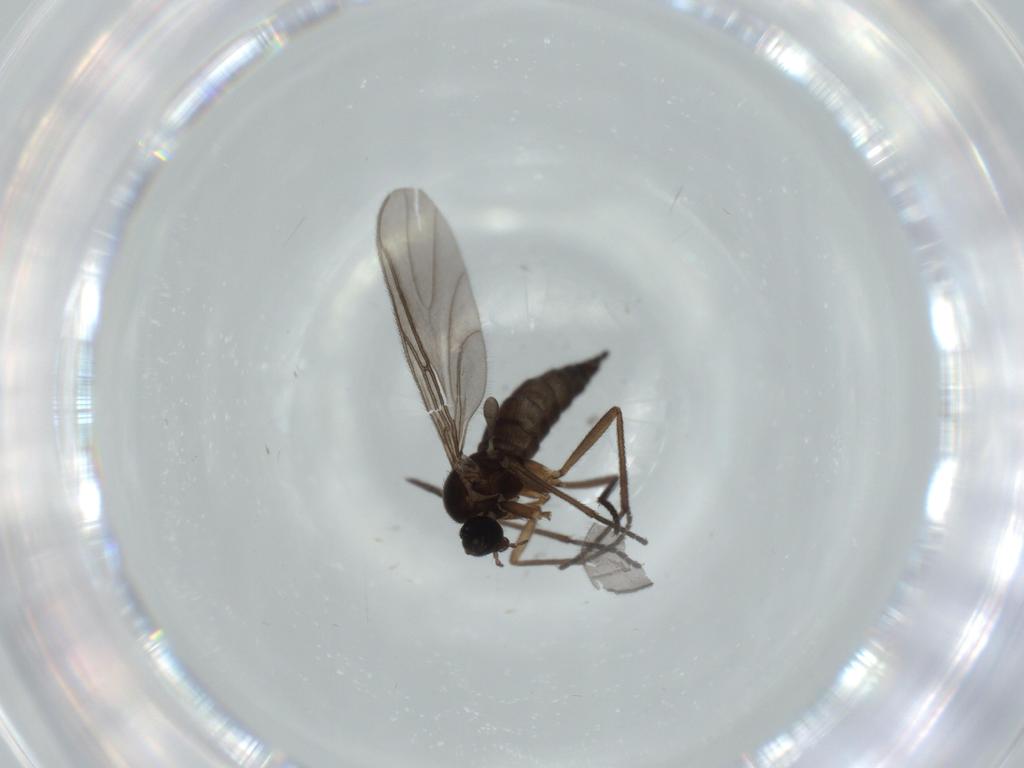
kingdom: Animalia
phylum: Arthropoda
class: Insecta
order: Diptera
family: Sciaridae
